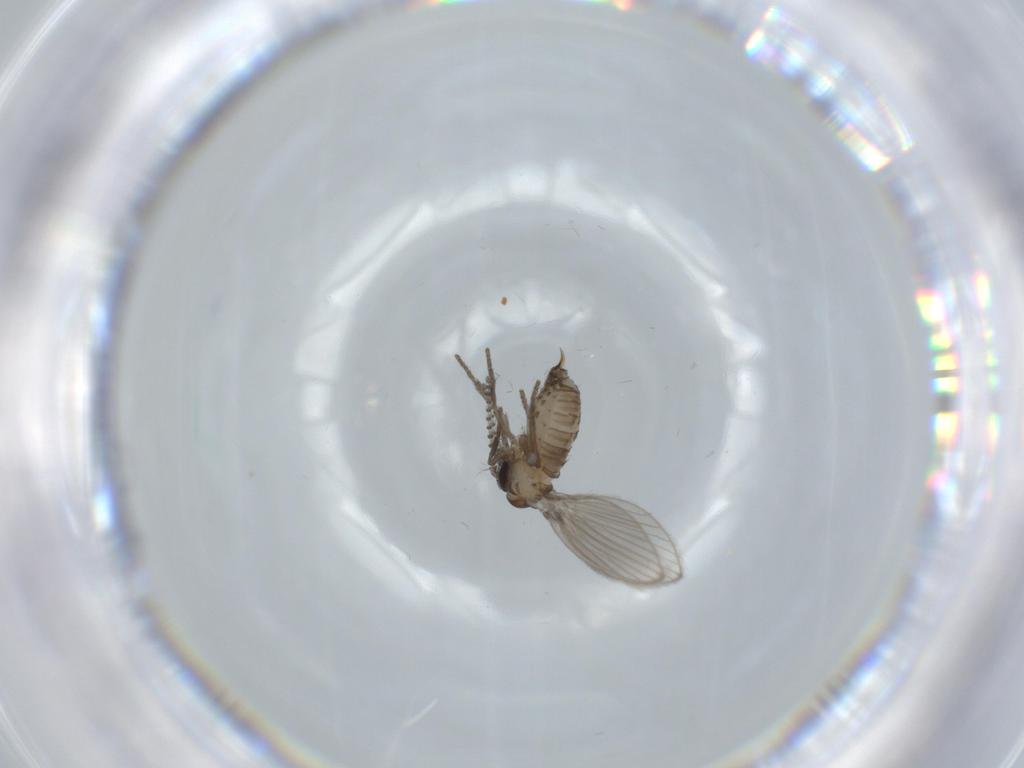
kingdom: Animalia
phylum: Arthropoda
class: Insecta
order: Diptera
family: Psychodidae
